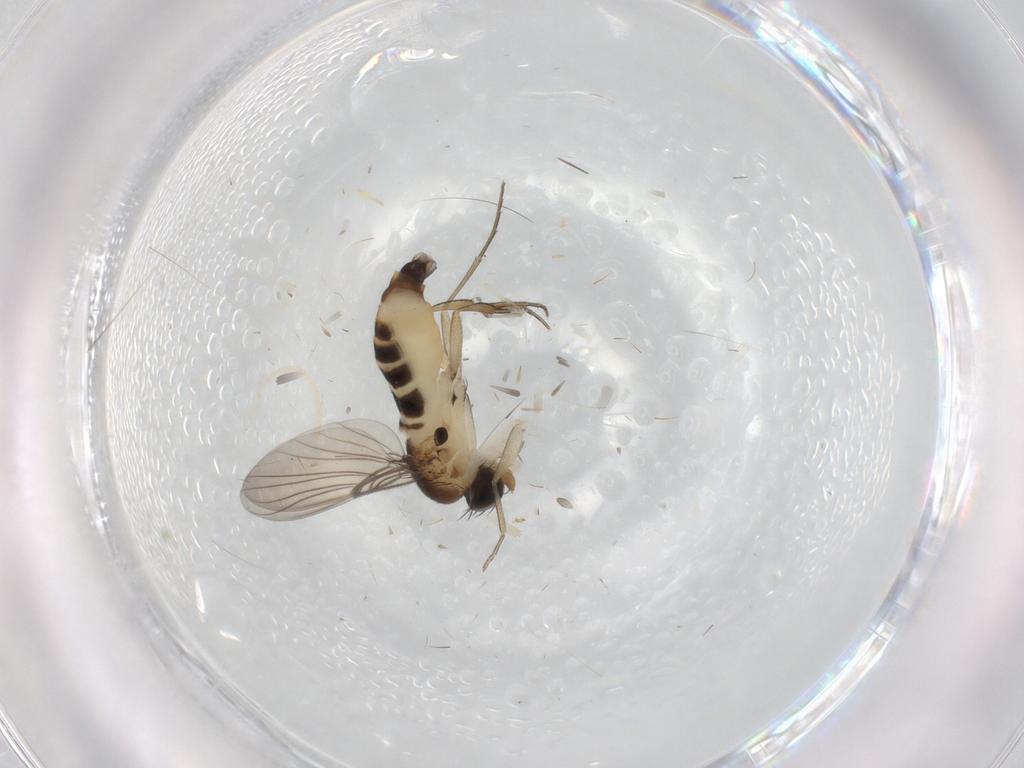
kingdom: Animalia
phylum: Arthropoda
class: Insecta
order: Diptera
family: Phoridae
